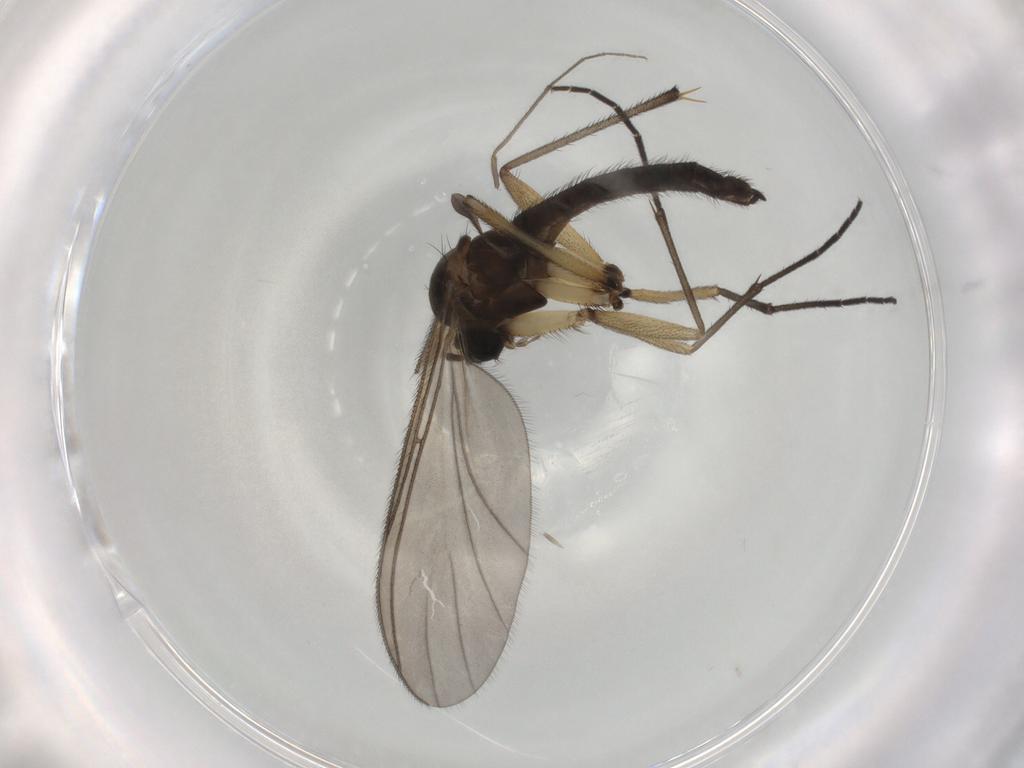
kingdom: Animalia
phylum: Arthropoda
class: Insecta
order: Diptera
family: Sciaridae
